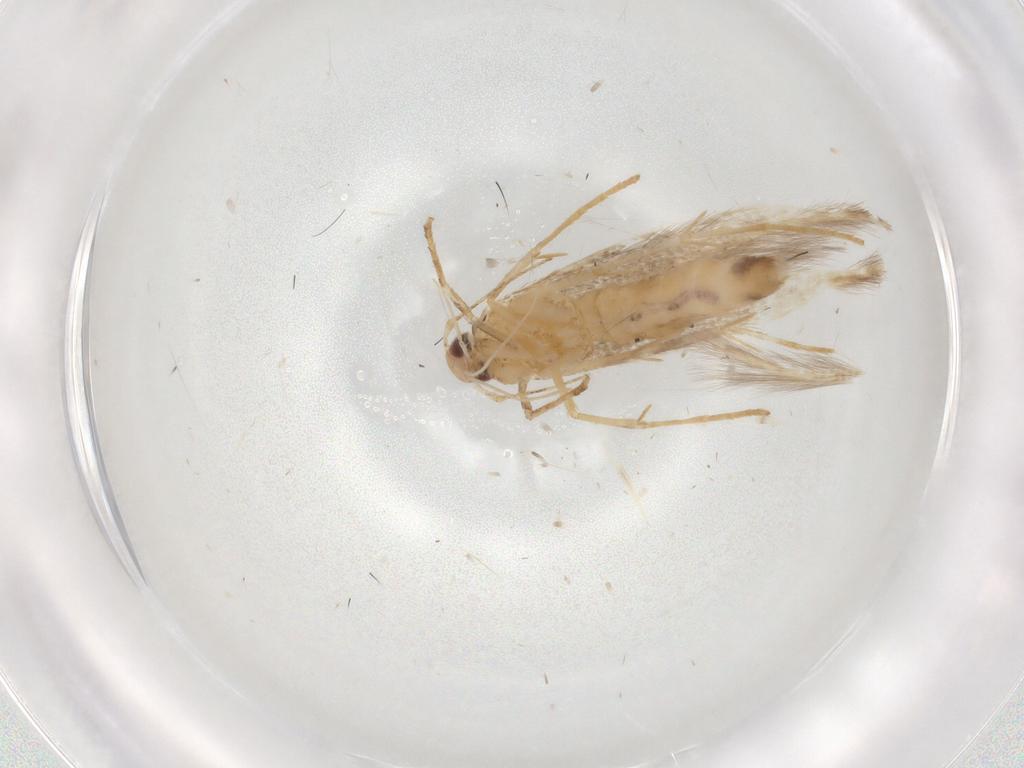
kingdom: Animalia
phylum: Arthropoda
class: Insecta
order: Lepidoptera
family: Cosmopterigidae
